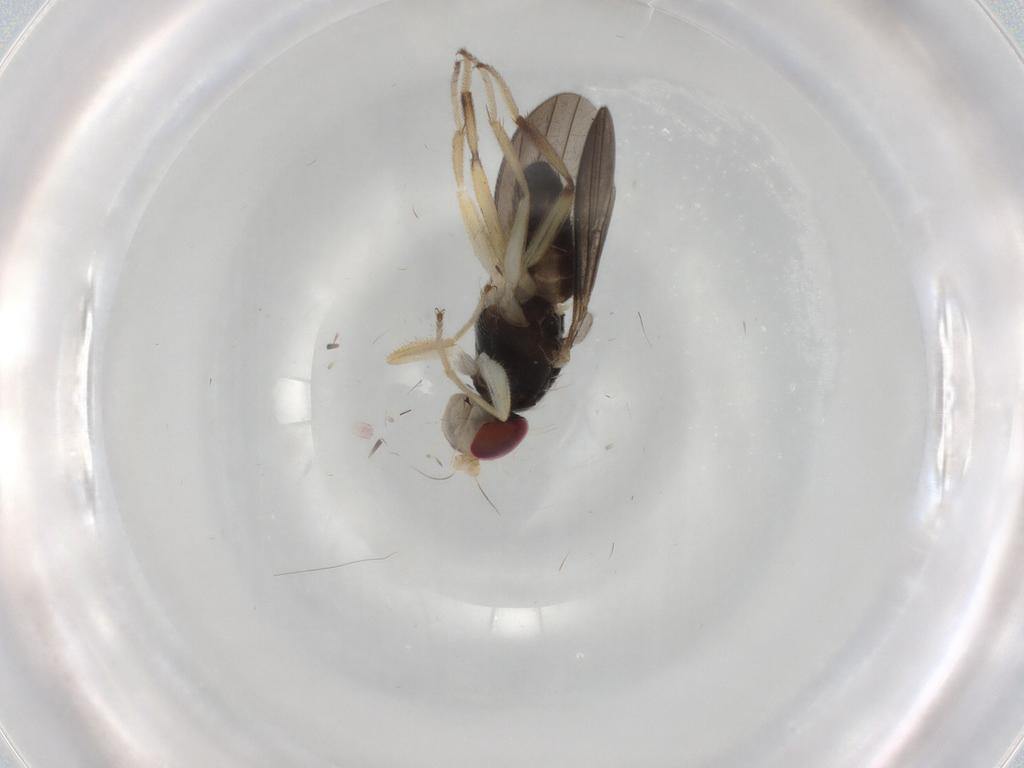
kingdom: Animalia
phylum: Arthropoda
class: Insecta
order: Diptera
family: Clusiidae
